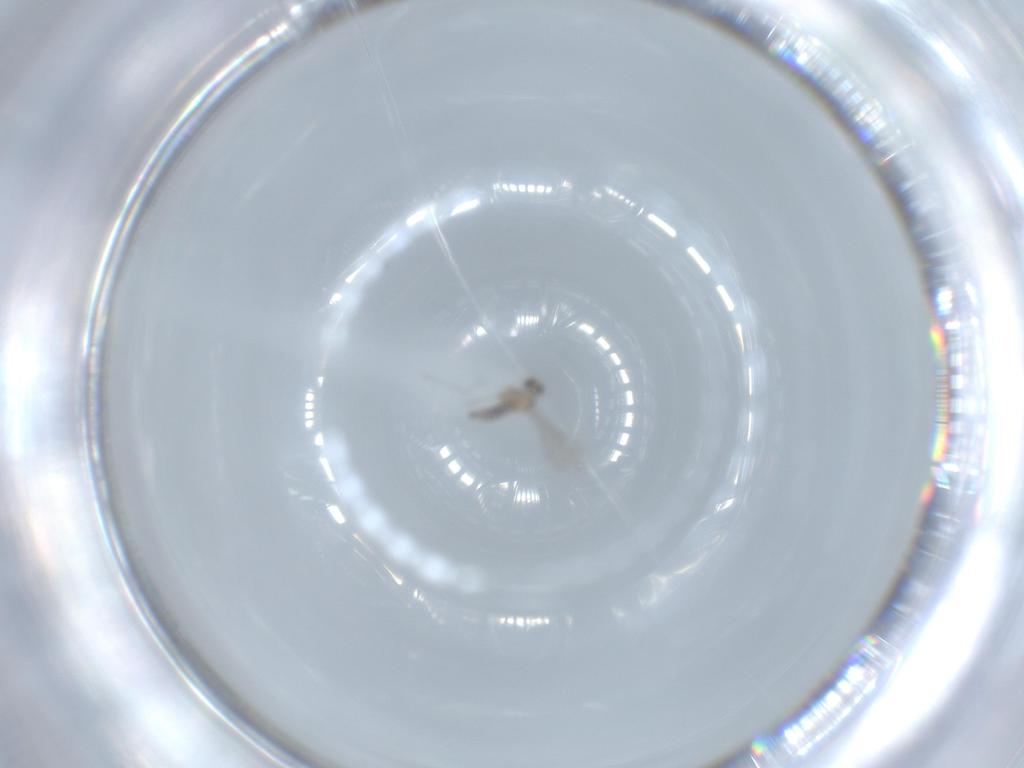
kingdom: Animalia
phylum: Arthropoda
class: Insecta
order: Diptera
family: Cecidomyiidae
